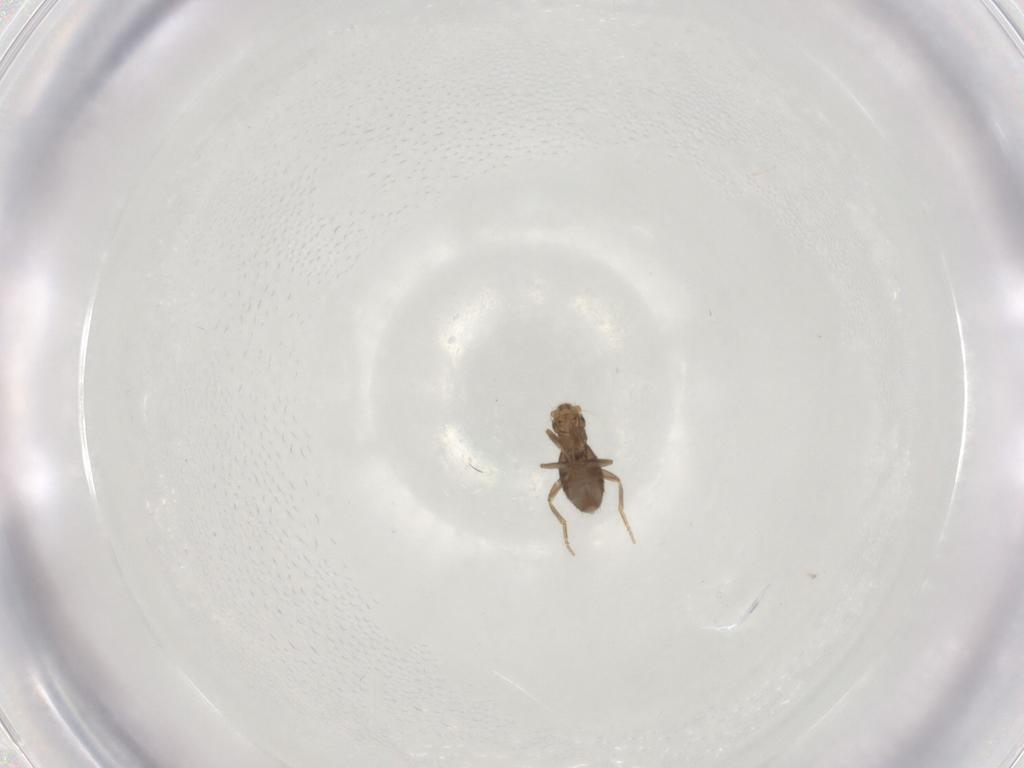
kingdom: Animalia
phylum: Arthropoda
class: Insecta
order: Diptera
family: Phoridae
